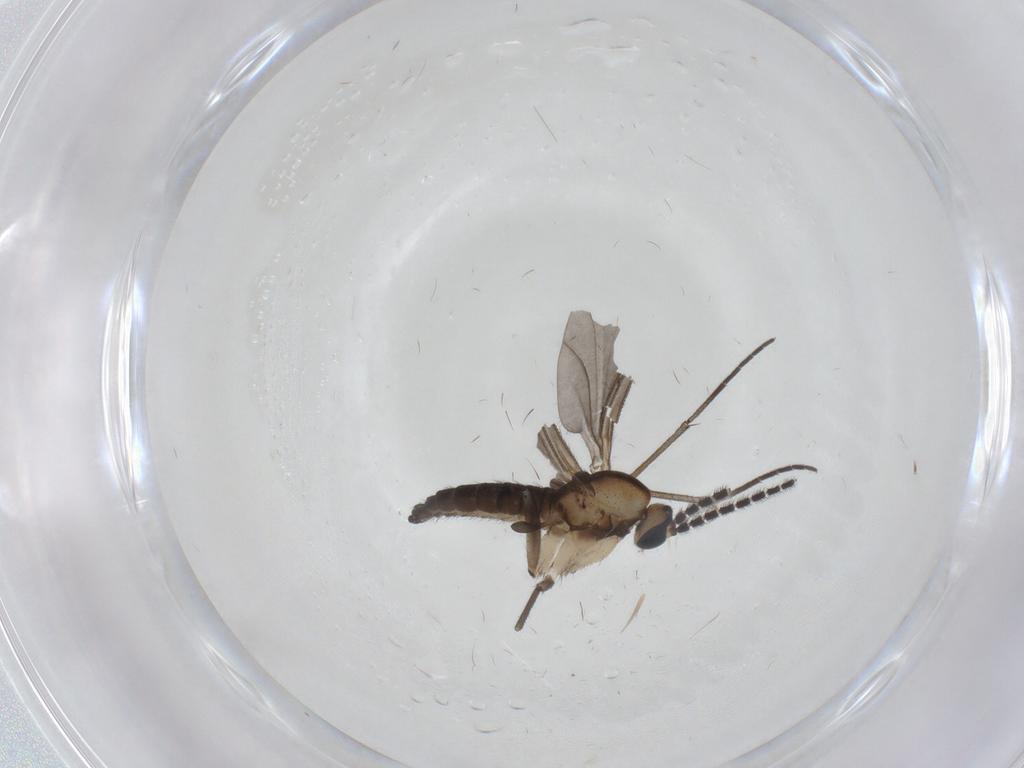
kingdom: Animalia
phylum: Arthropoda
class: Insecta
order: Diptera
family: Sciaridae
